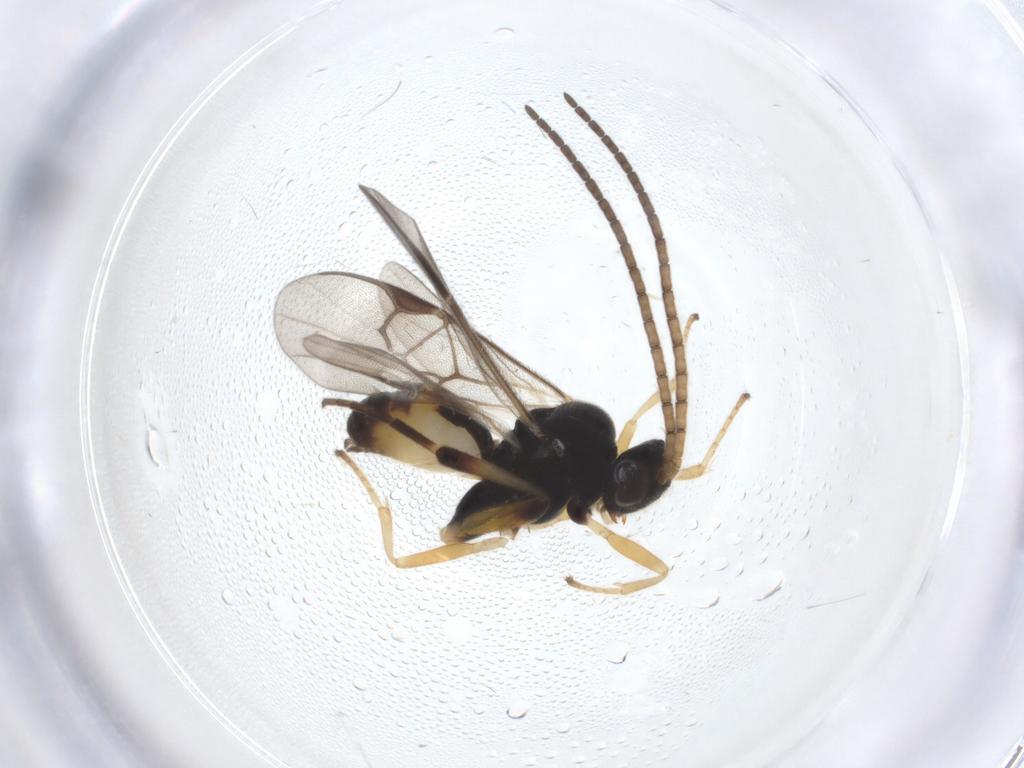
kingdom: Animalia
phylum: Arthropoda
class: Insecta
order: Hymenoptera
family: Braconidae
